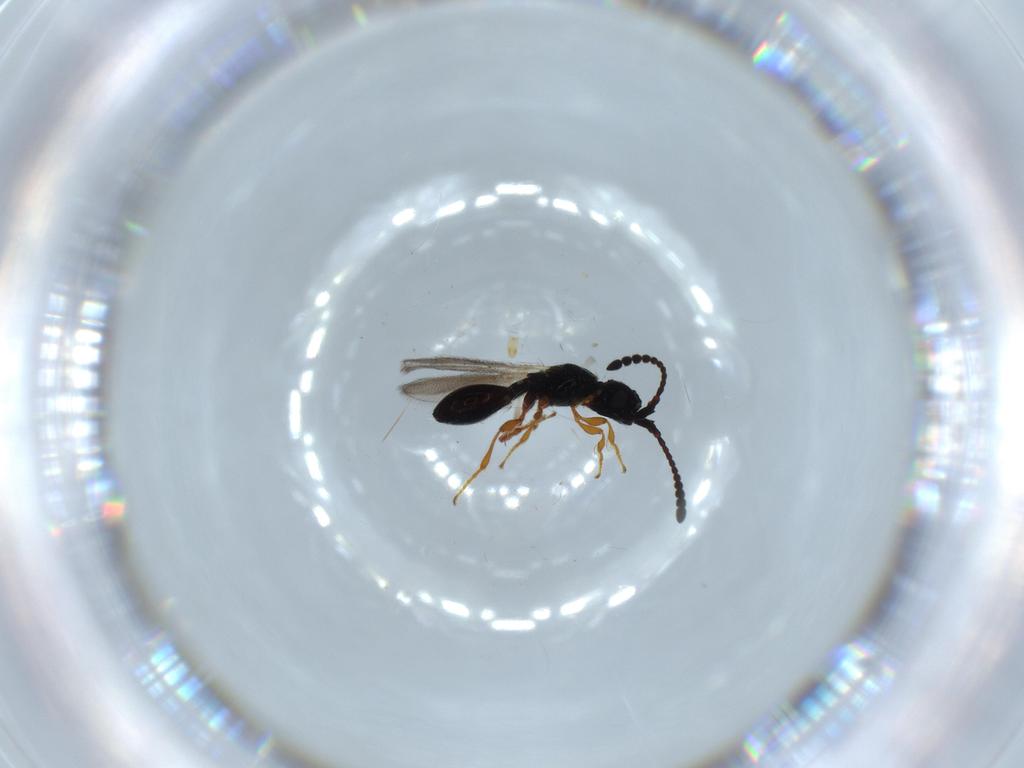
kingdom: Animalia
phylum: Arthropoda
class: Insecta
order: Hymenoptera
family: Diapriidae
